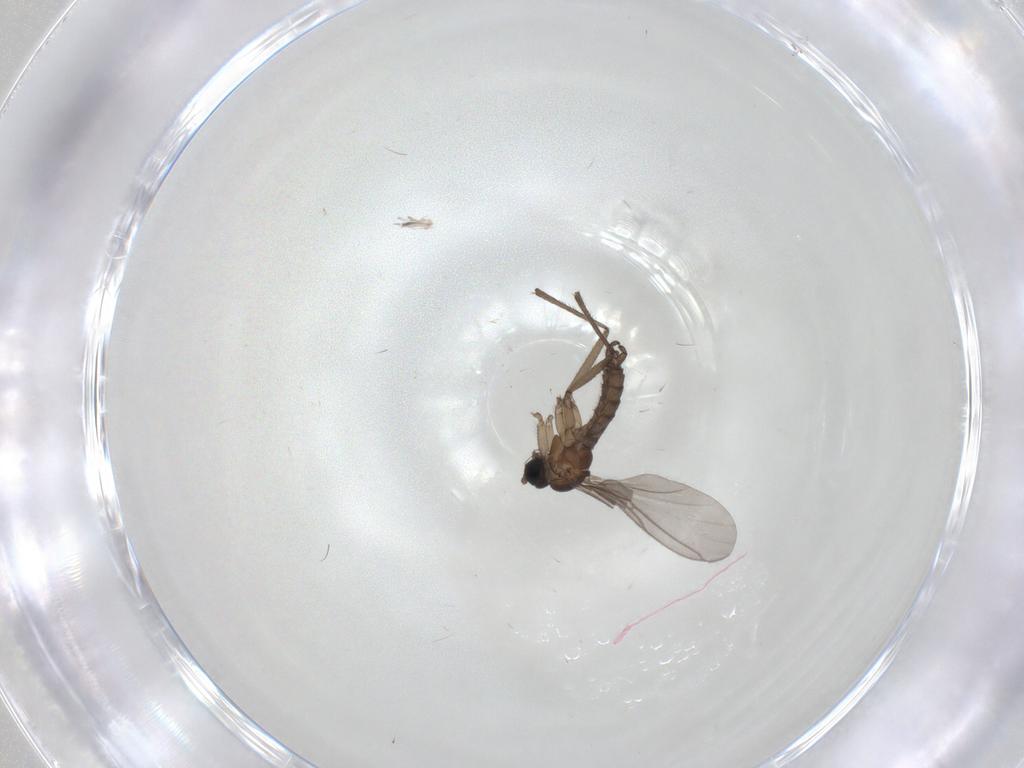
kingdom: Animalia
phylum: Arthropoda
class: Insecta
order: Diptera
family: Sciaridae
